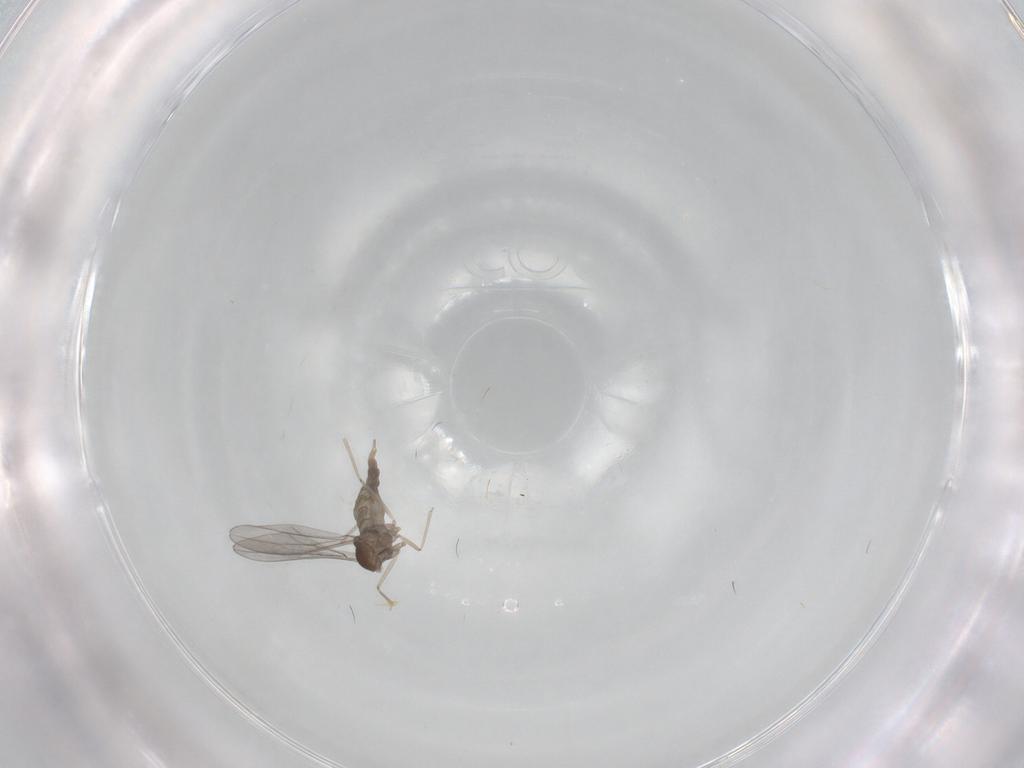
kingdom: Animalia
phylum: Arthropoda
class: Insecta
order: Diptera
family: Cecidomyiidae
